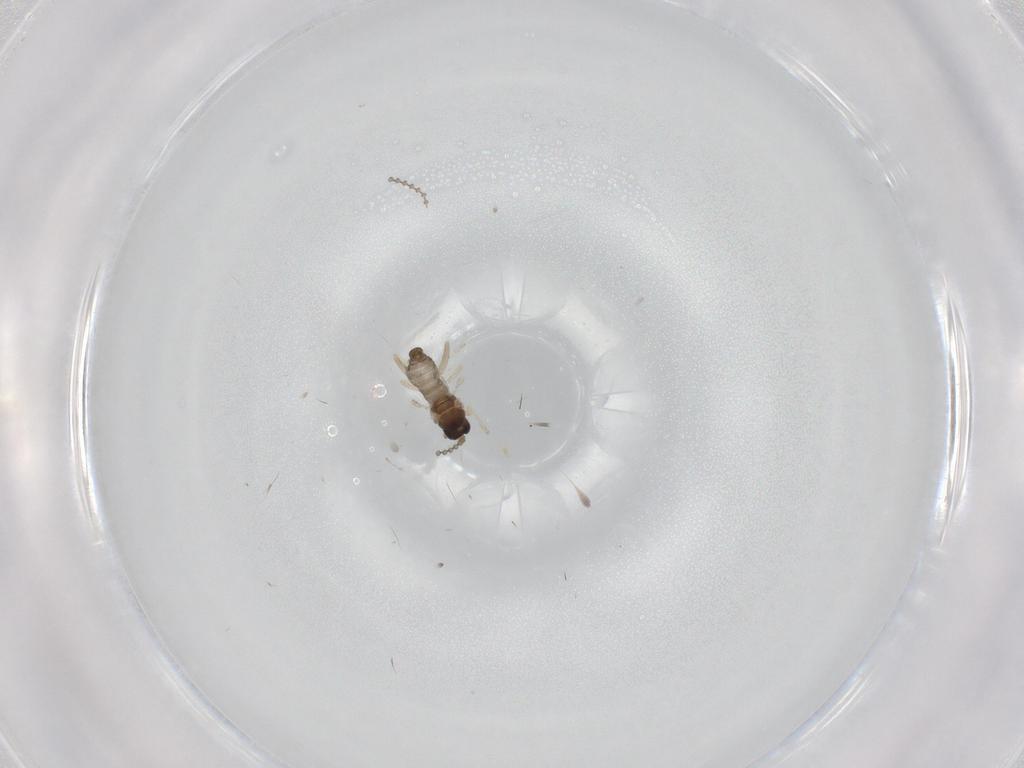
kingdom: Animalia
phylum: Arthropoda
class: Insecta
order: Diptera
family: Cecidomyiidae
